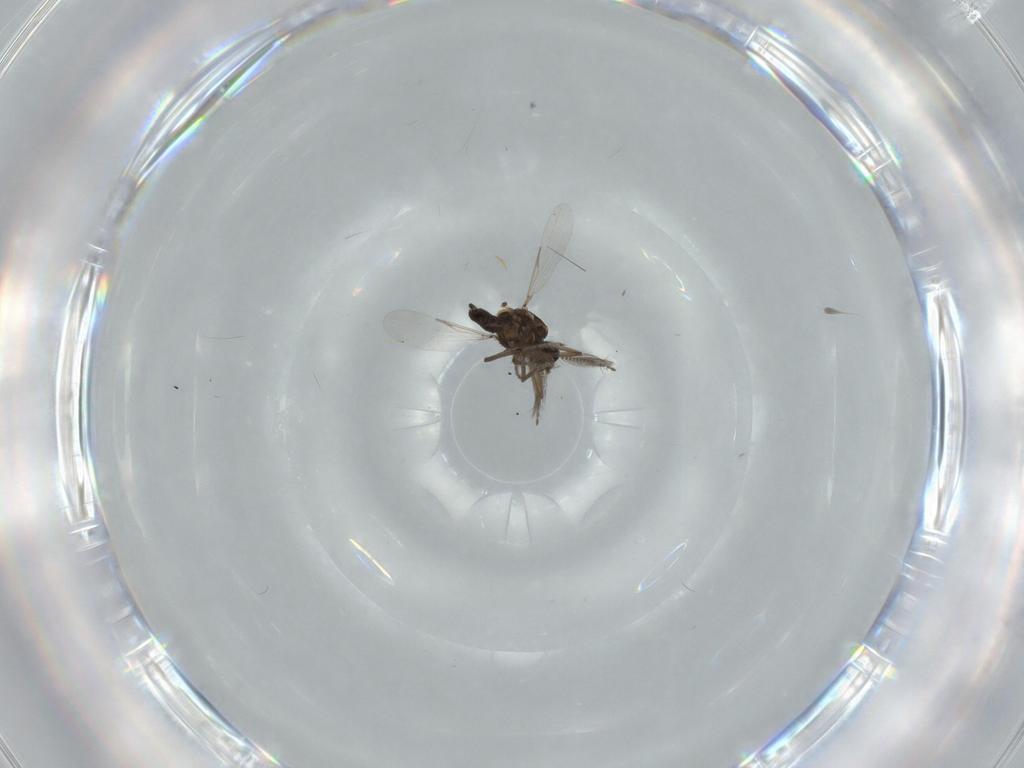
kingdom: Animalia
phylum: Arthropoda
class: Insecta
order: Diptera
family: Ceratopogonidae
